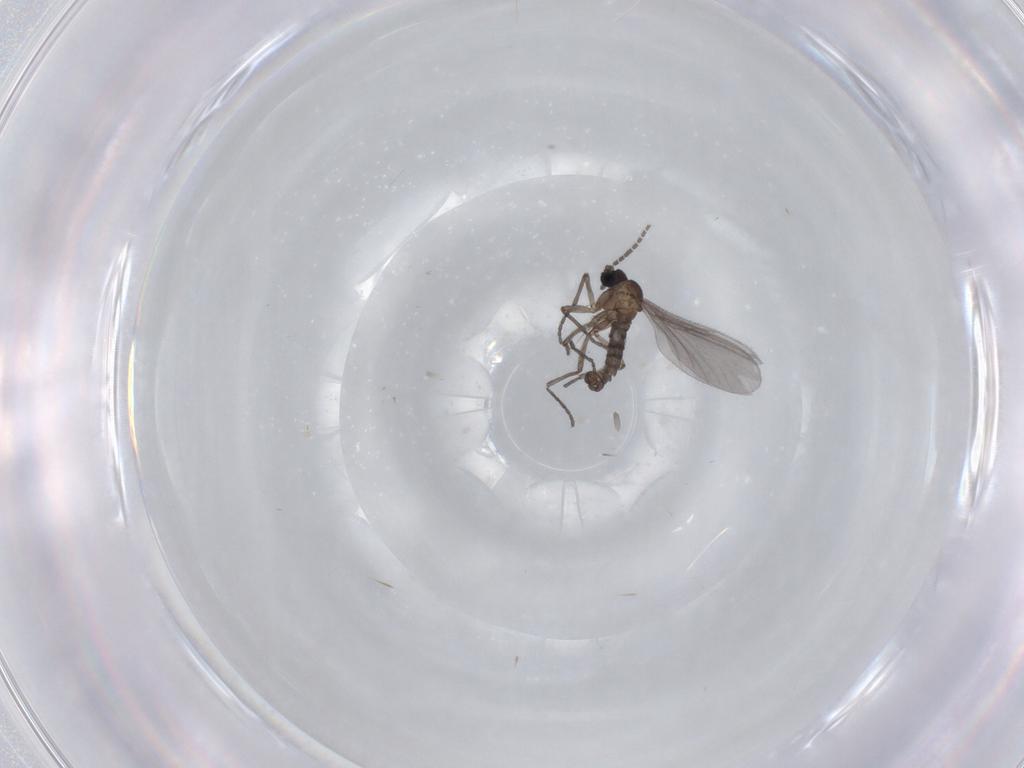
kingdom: Animalia
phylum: Arthropoda
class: Insecta
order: Diptera
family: Sciaridae
